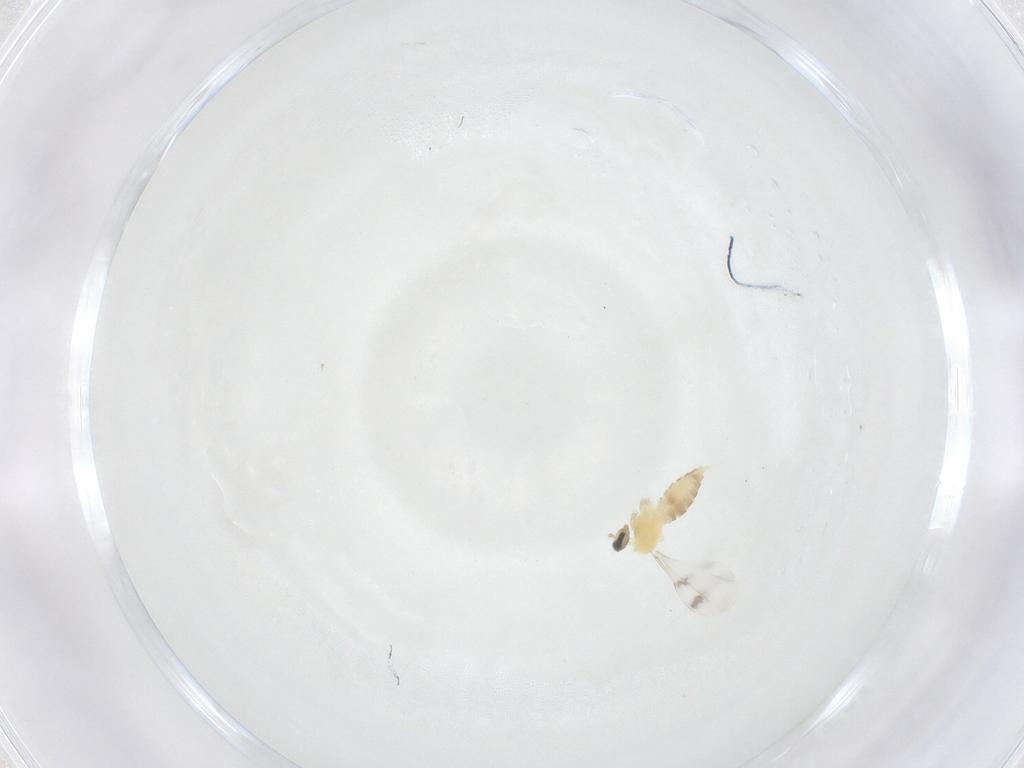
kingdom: Animalia
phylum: Arthropoda
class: Insecta
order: Diptera
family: Cecidomyiidae
